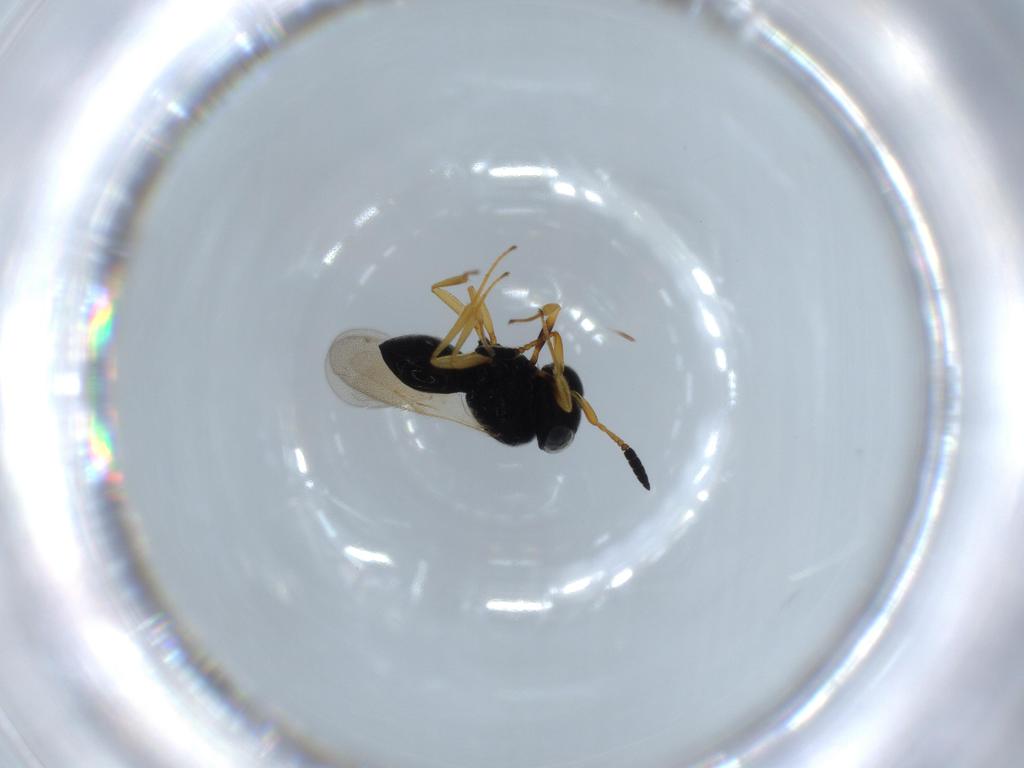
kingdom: Animalia
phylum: Arthropoda
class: Insecta
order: Hymenoptera
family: Scelionidae
